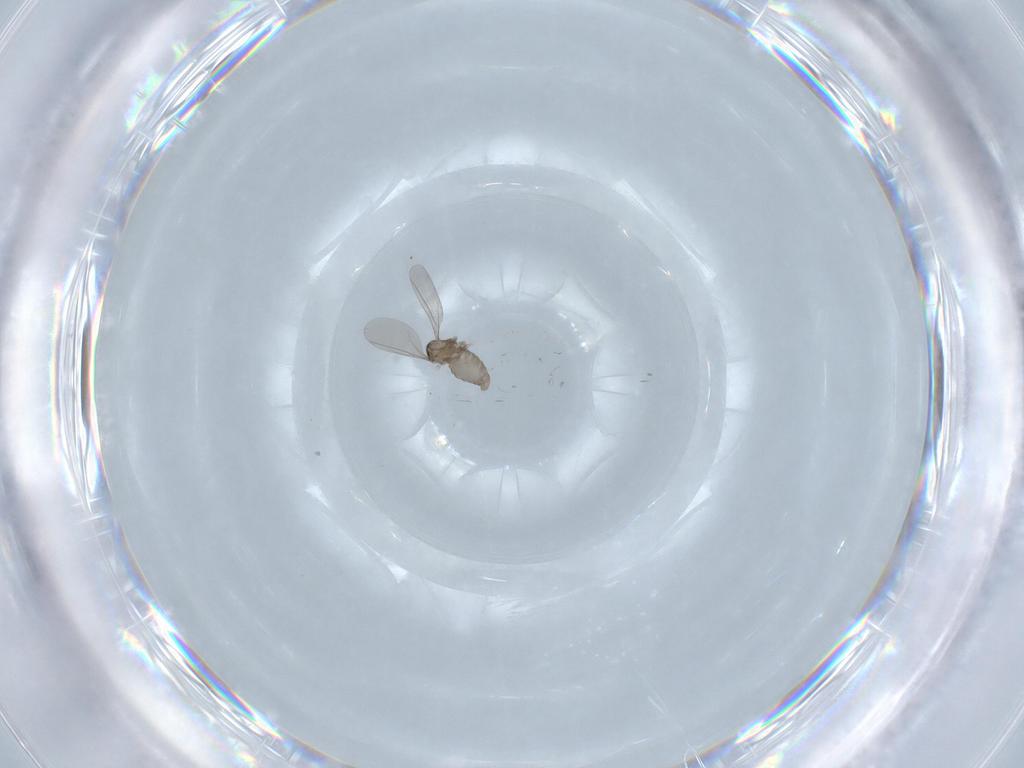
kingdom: Animalia
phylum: Arthropoda
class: Insecta
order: Diptera
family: Cecidomyiidae
